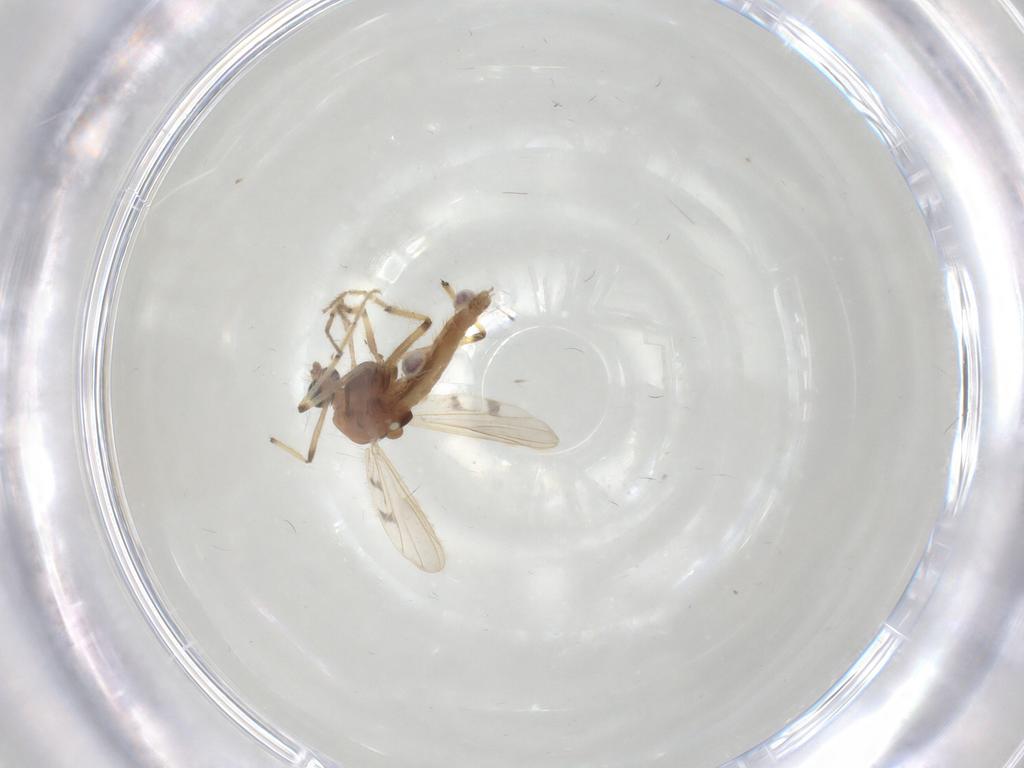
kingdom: Animalia
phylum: Arthropoda
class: Insecta
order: Diptera
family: Chironomidae
